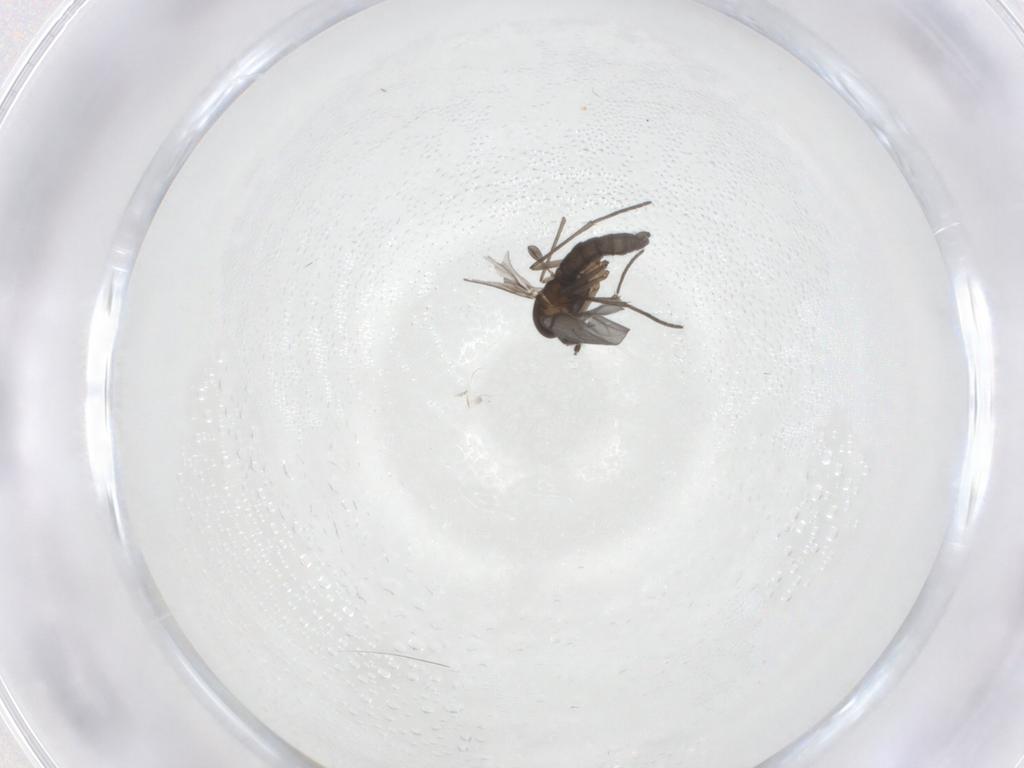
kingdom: Animalia
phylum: Arthropoda
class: Insecta
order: Diptera
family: Sciaridae
